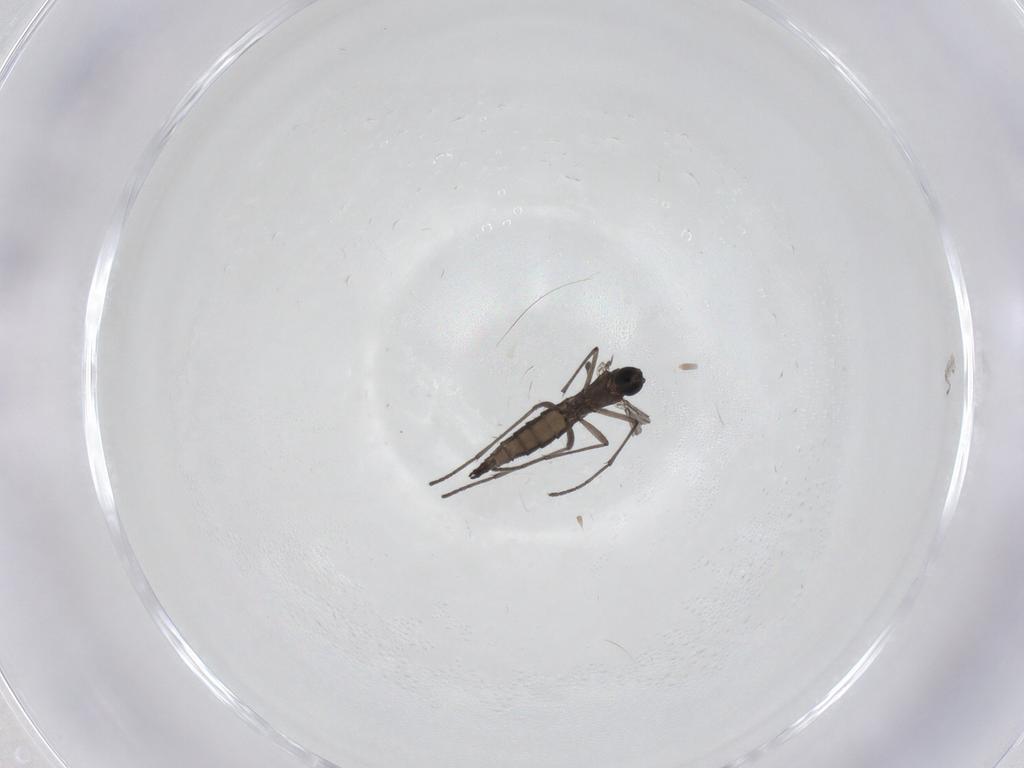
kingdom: Animalia
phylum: Arthropoda
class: Insecta
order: Diptera
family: Sciaridae
